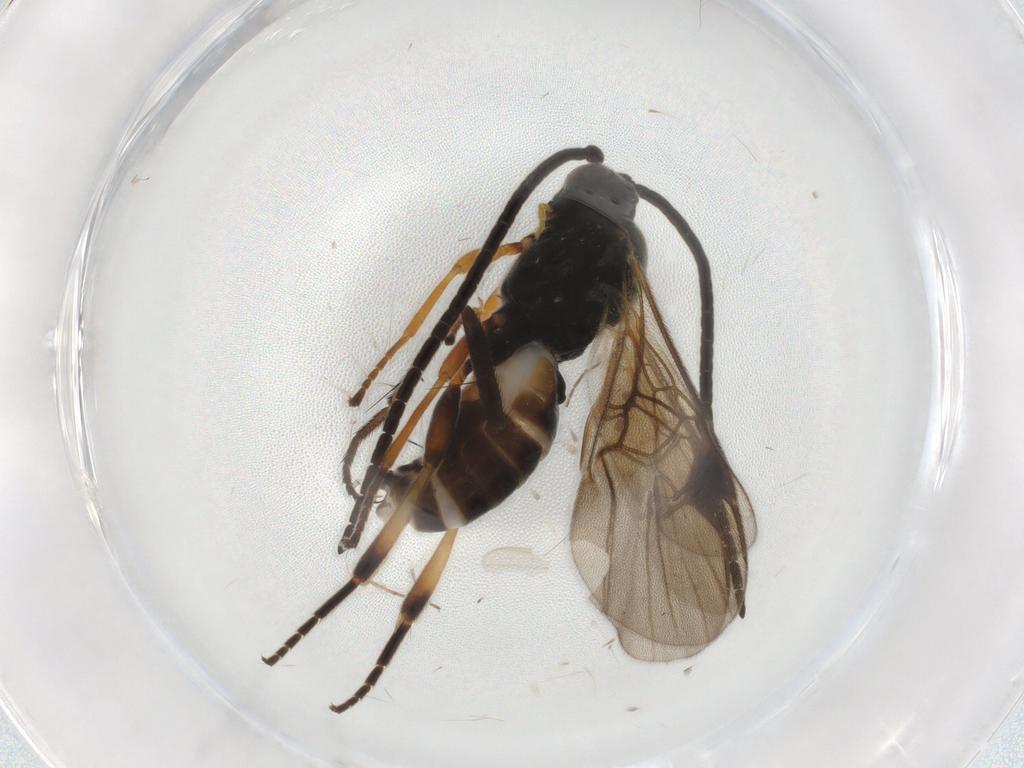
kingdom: Animalia
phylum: Arthropoda
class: Insecta
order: Hymenoptera
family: Braconidae
